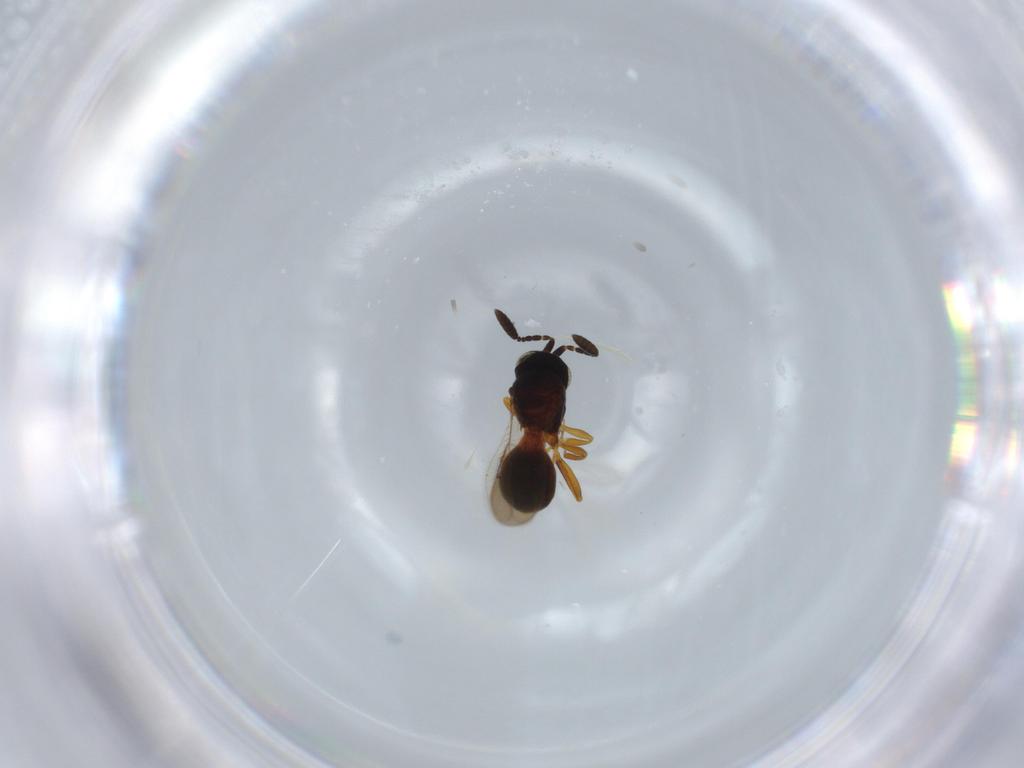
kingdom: Animalia
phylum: Arthropoda
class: Insecta
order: Hymenoptera
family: Scelionidae
